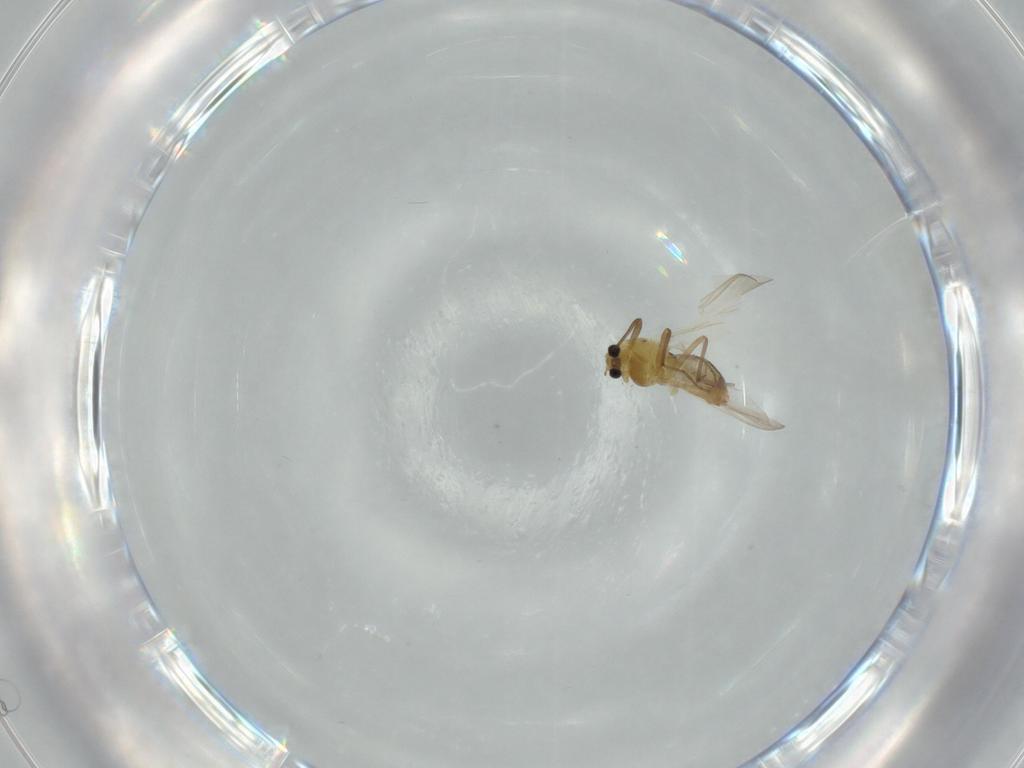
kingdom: Animalia
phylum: Arthropoda
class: Insecta
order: Diptera
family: Chironomidae
